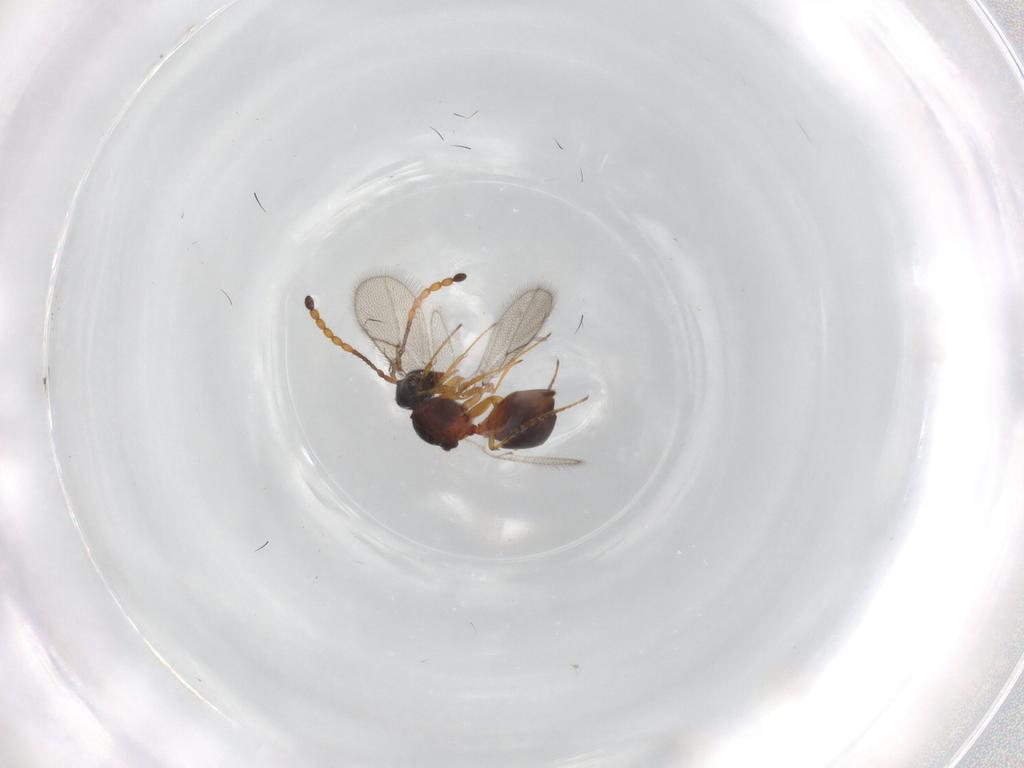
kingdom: Animalia
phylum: Arthropoda
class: Insecta
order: Hymenoptera
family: Figitidae
